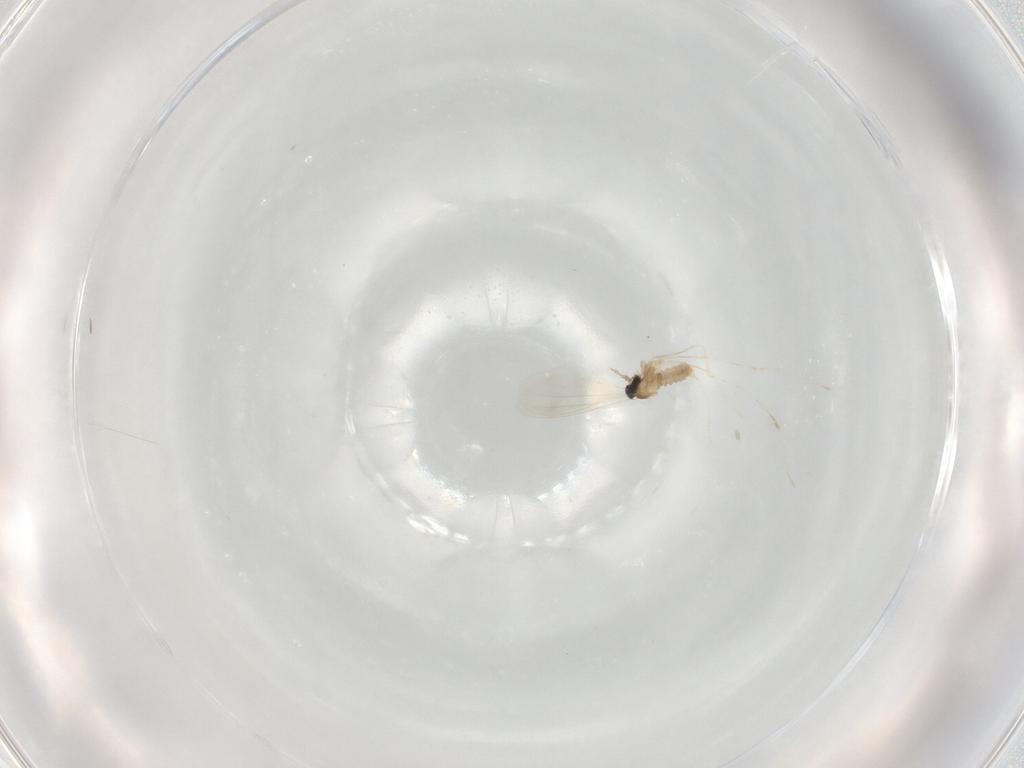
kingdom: Animalia
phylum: Arthropoda
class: Insecta
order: Diptera
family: Cecidomyiidae
